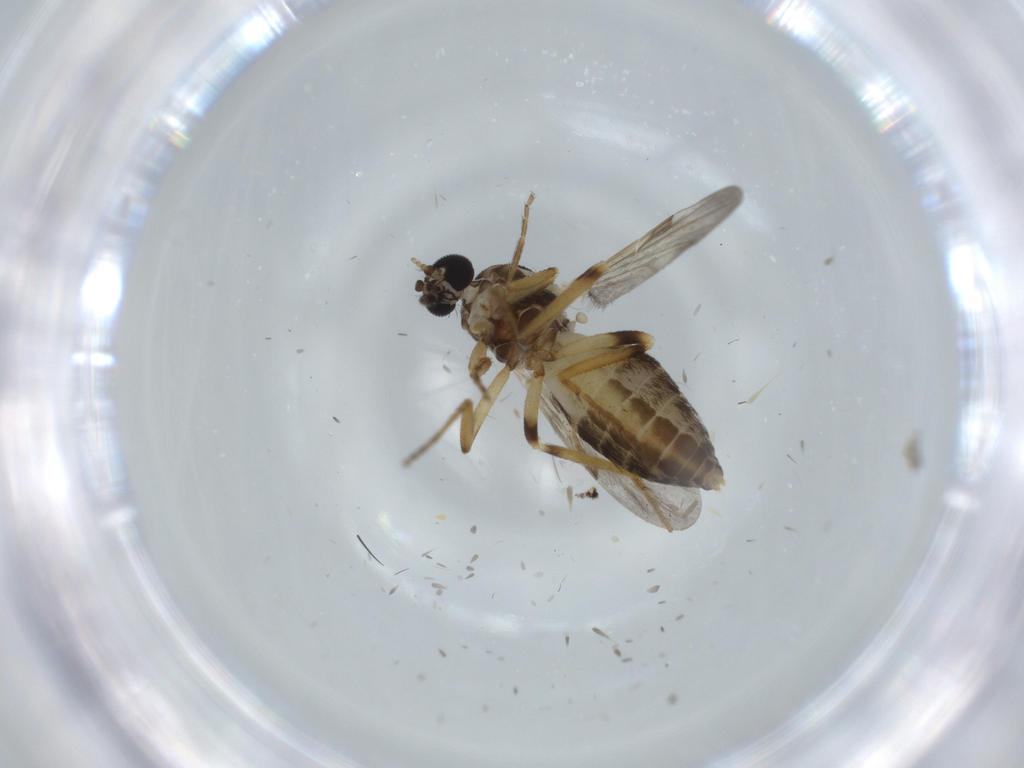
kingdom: Animalia
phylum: Arthropoda
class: Insecta
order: Diptera
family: Ceratopogonidae
